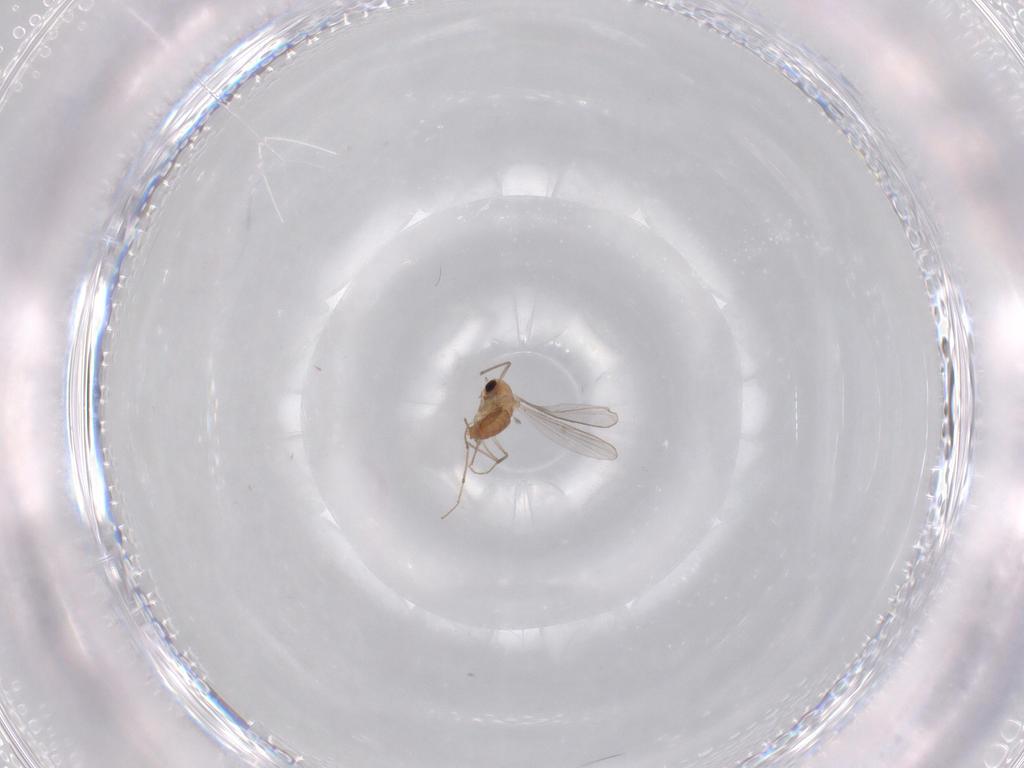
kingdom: Animalia
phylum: Arthropoda
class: Insecta
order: Diptera
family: Chironomidae
